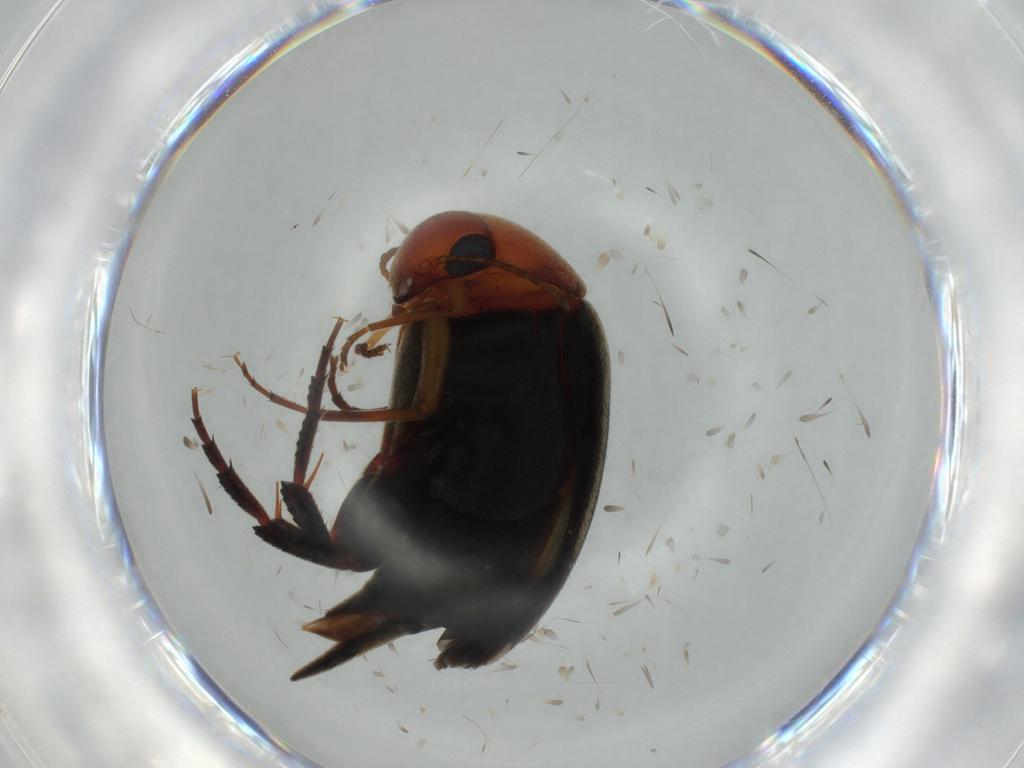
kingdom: Animalia
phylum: Arthropoda
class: Insecta
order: Coleoptera
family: Mordellidae
